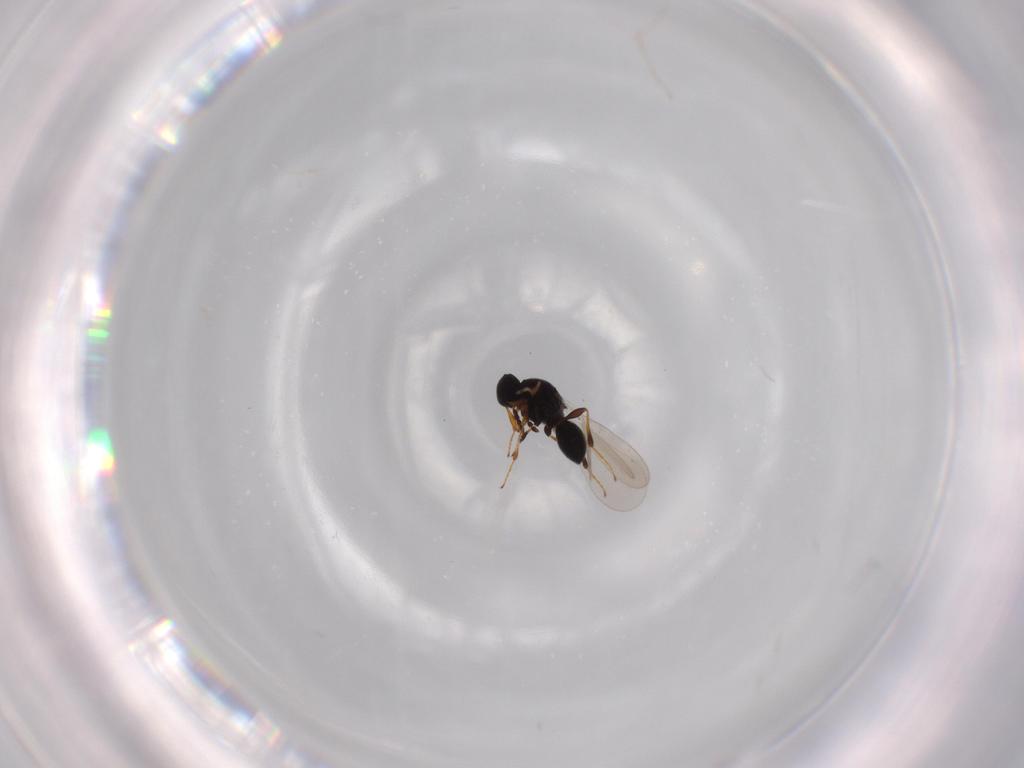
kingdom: Animalia
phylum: Arthropoda
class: Insecta
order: Hymenoptera
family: Platygastridae
